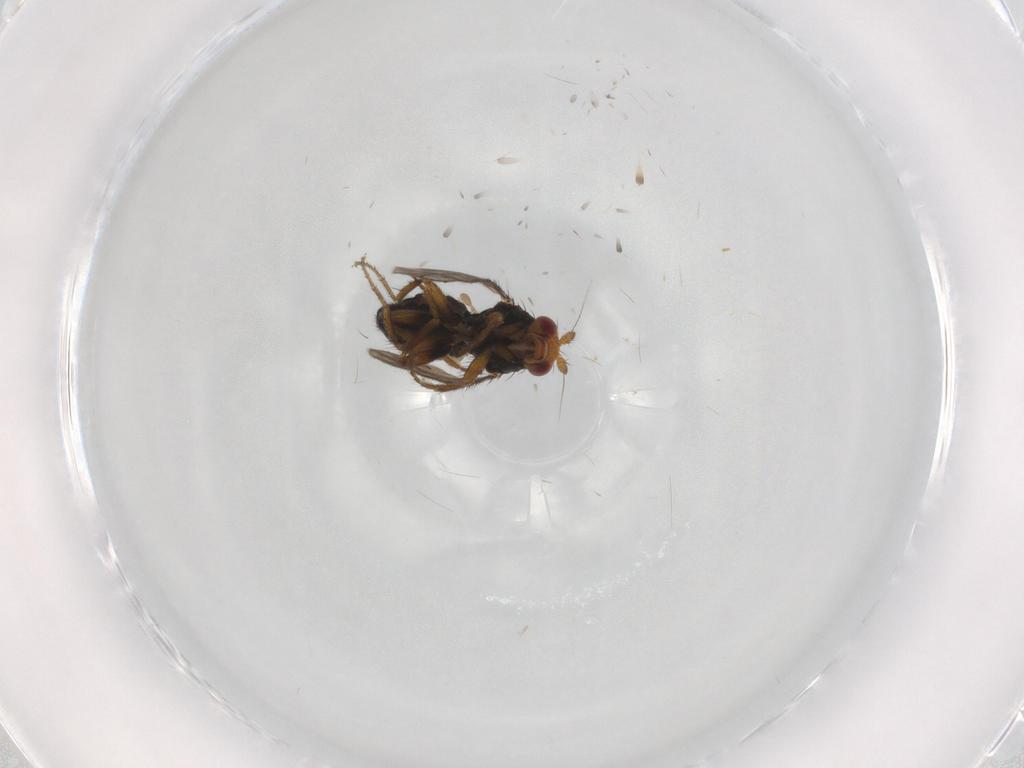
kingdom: Animalia
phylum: Arthropoda
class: Insecta
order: Diptera
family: Sphaeroceridae
